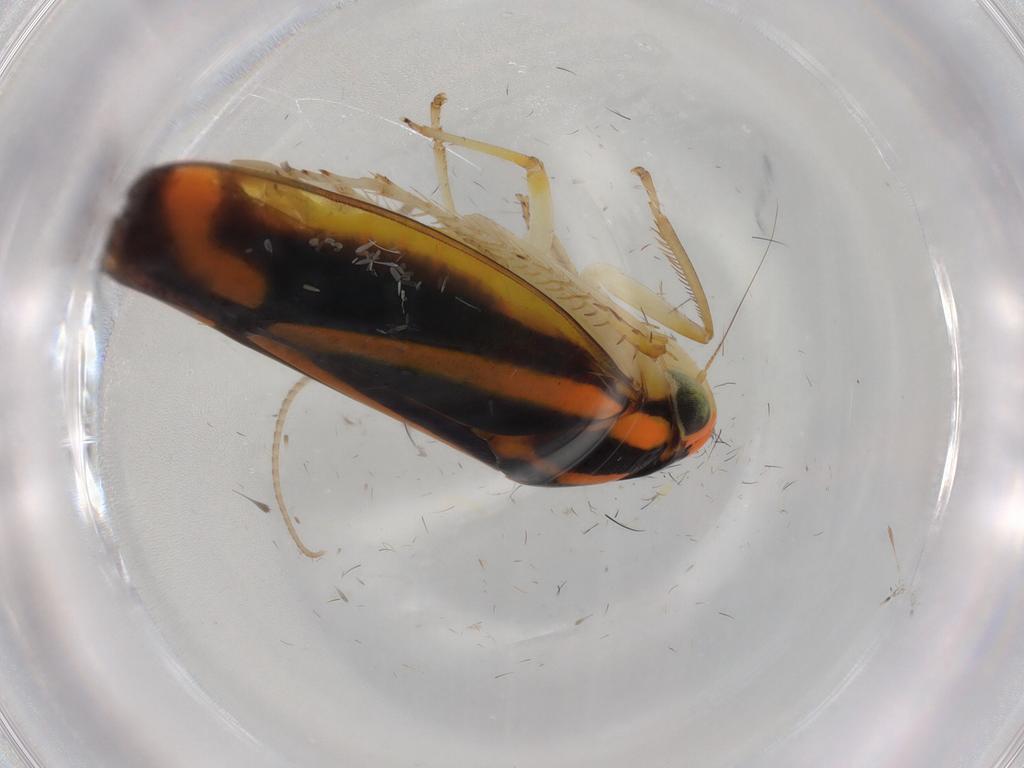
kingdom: Animalia
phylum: Arthropoda
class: Insecta
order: Hemiptera
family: Cicadellidae
